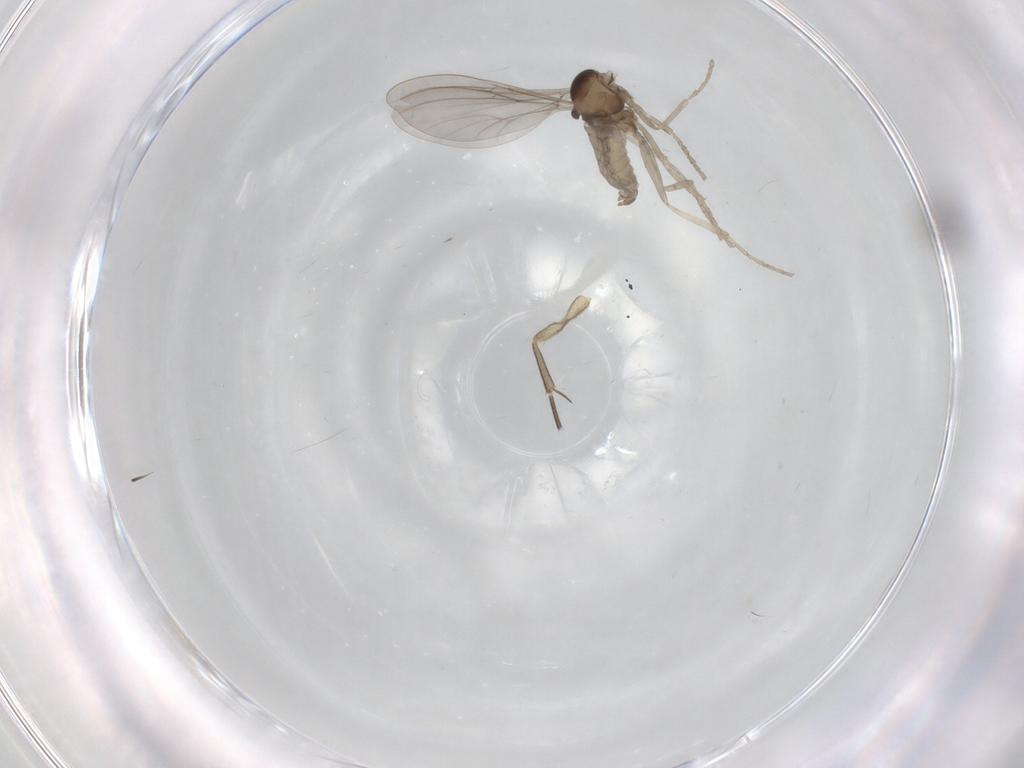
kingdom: Animalia
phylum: Arthropoda
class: Insecta
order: Diptera
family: Cecidomyiidae
